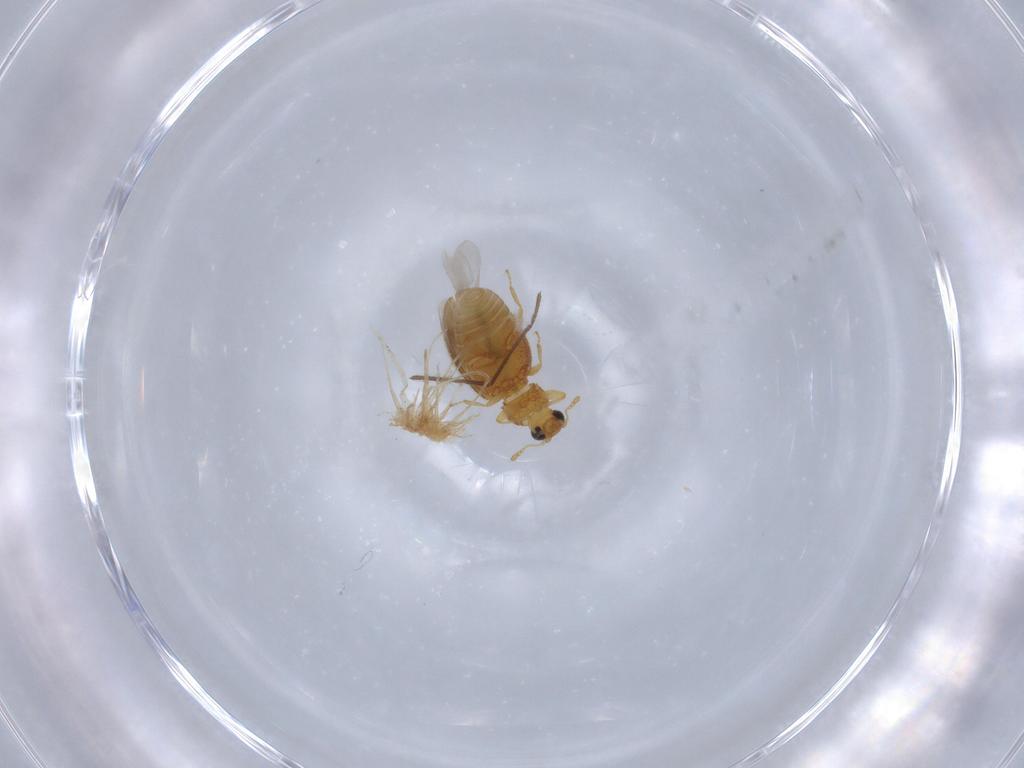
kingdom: Animalia
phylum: Arthropoda
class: Insecta
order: Coleoptera
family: Latridiidae
